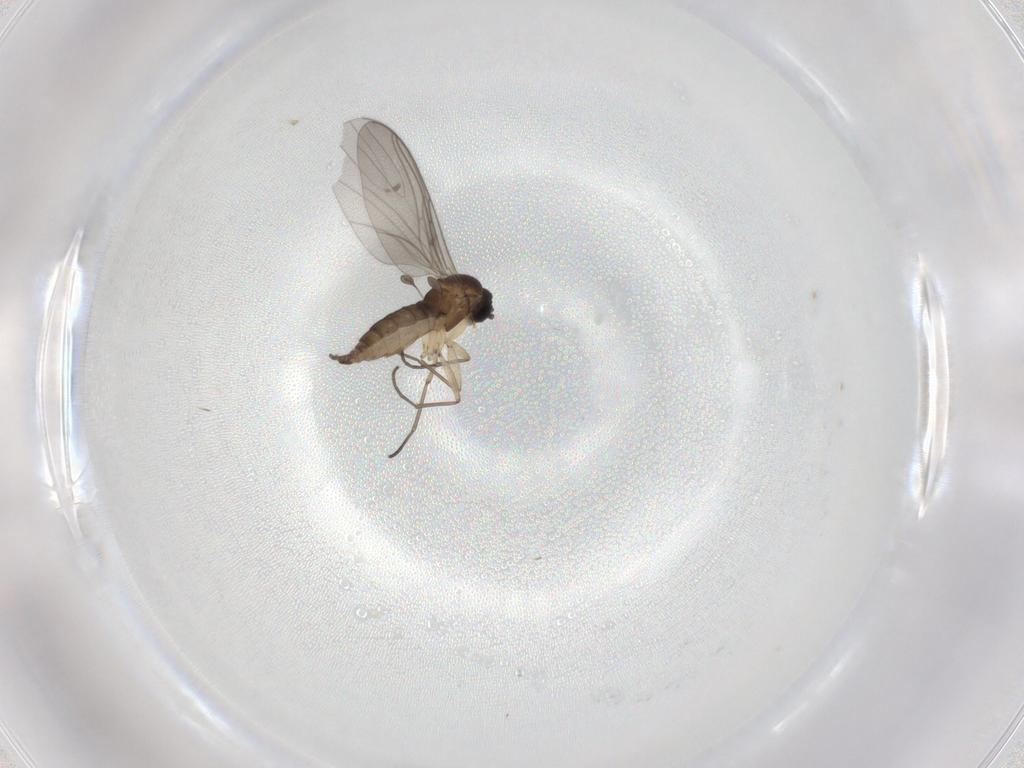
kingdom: Animalia
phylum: Arthropoda
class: Insecta
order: Diptera
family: Sciaridae
